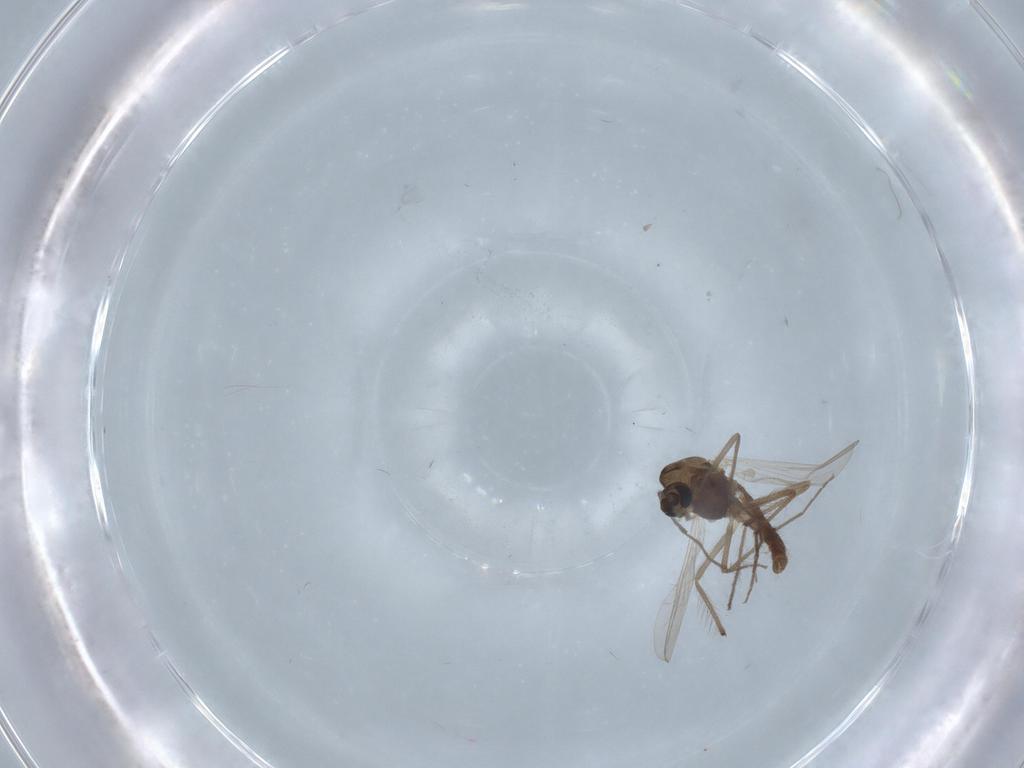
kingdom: Animalia
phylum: Arthropoda
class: Insecta
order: Diptera
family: Chironomidae
